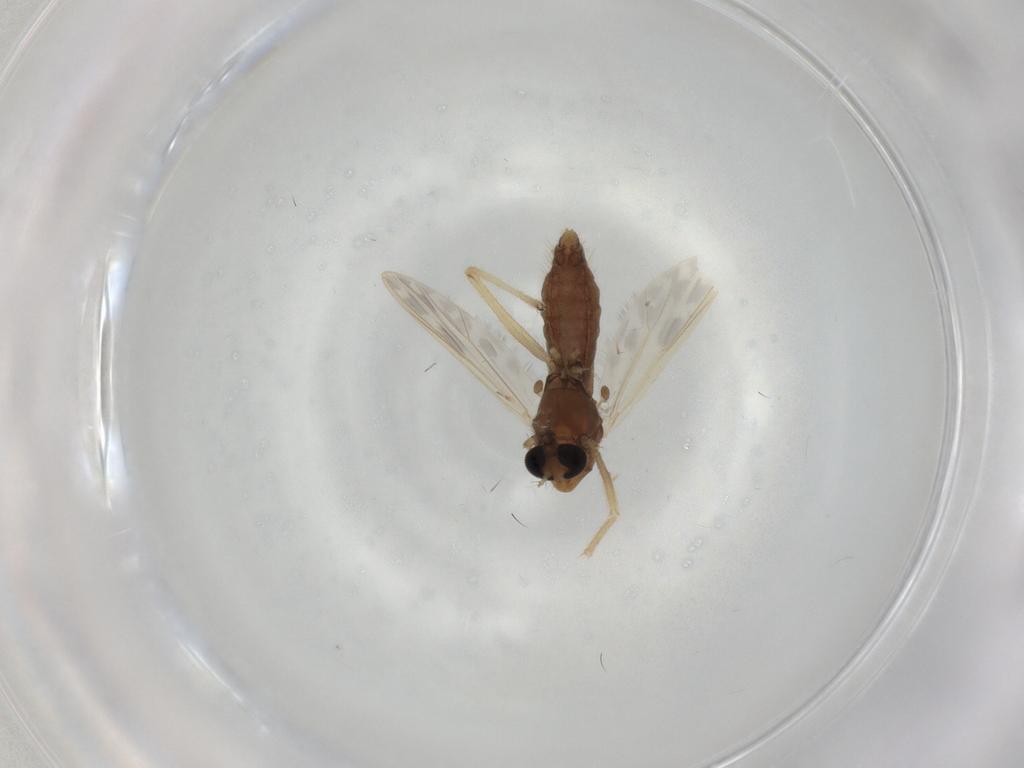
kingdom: Animalia
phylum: Arthropoda
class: Insecta
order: Diptera
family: Chironomidae
